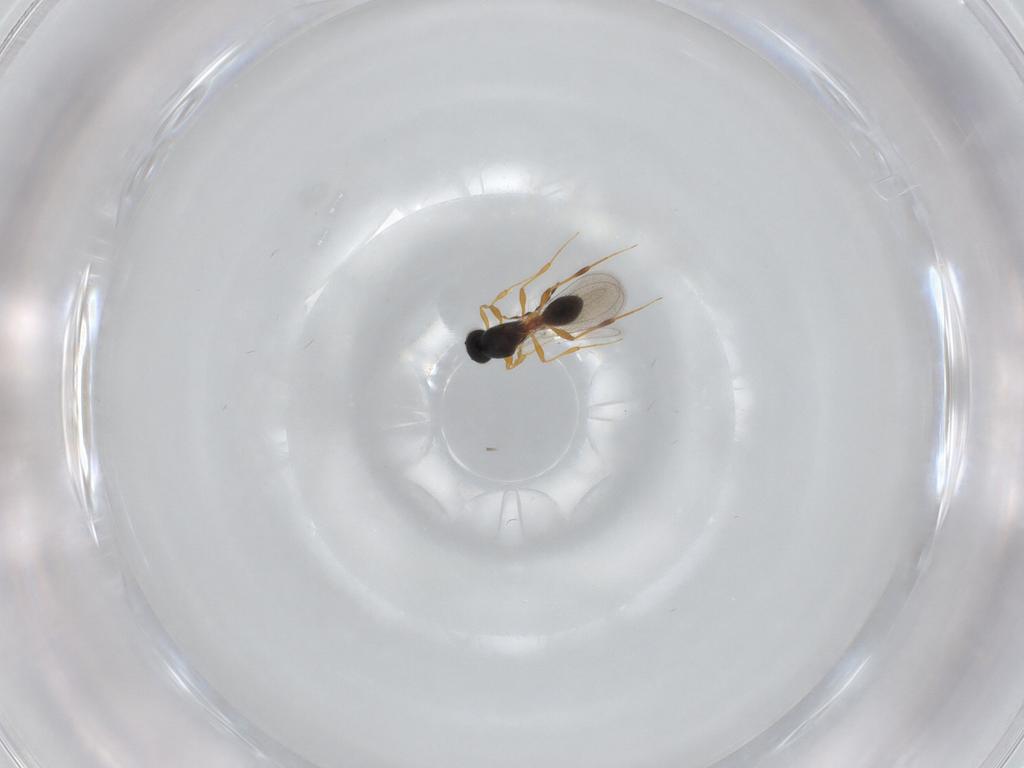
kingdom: Animalia
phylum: Arthropoda
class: Insecta
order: Hymenoptera
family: Platygastridae
